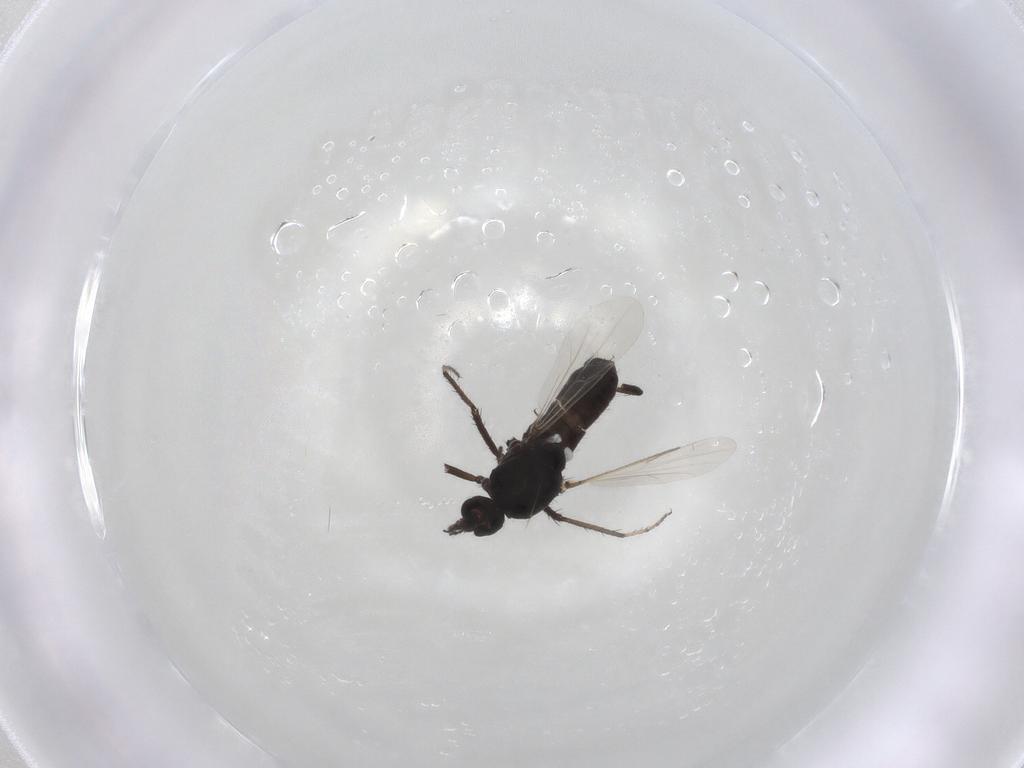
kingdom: Animalia
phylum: Arthropoda
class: Insecta
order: Diptera
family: Ceratopogonidae
